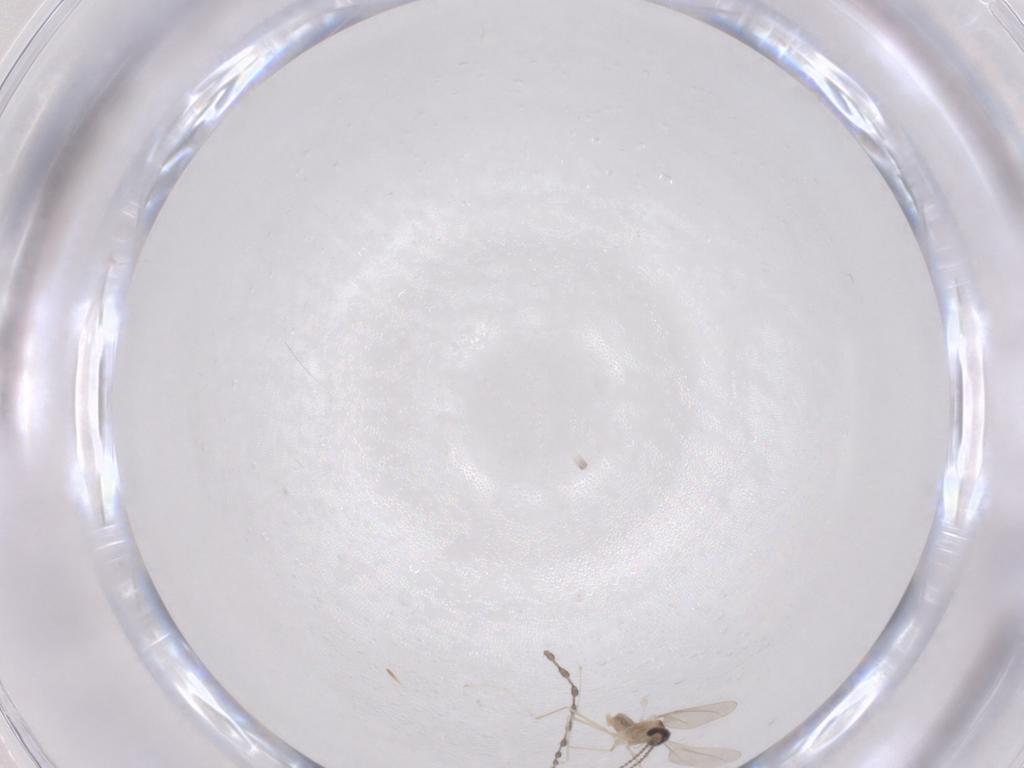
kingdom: Animalia
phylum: Arthropoda
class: Insecta
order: Diptera
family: Cecidomyiidae
